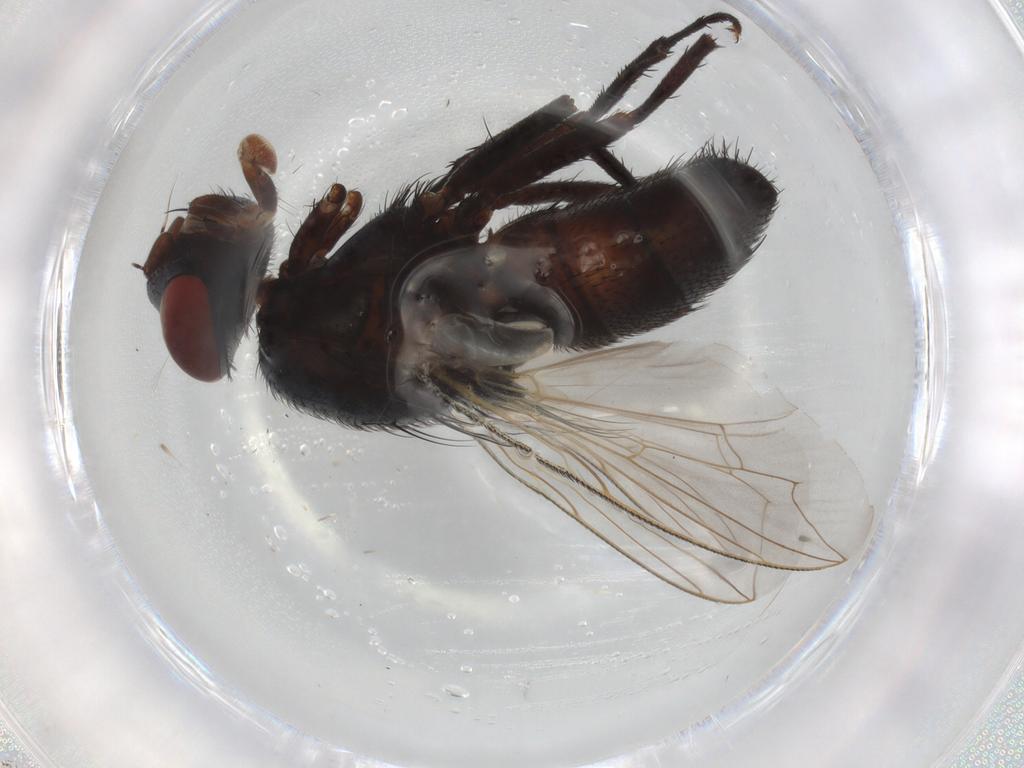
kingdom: Animalia
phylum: Arthropoda
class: Insecta
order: Diptera
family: Sarcophagidae
